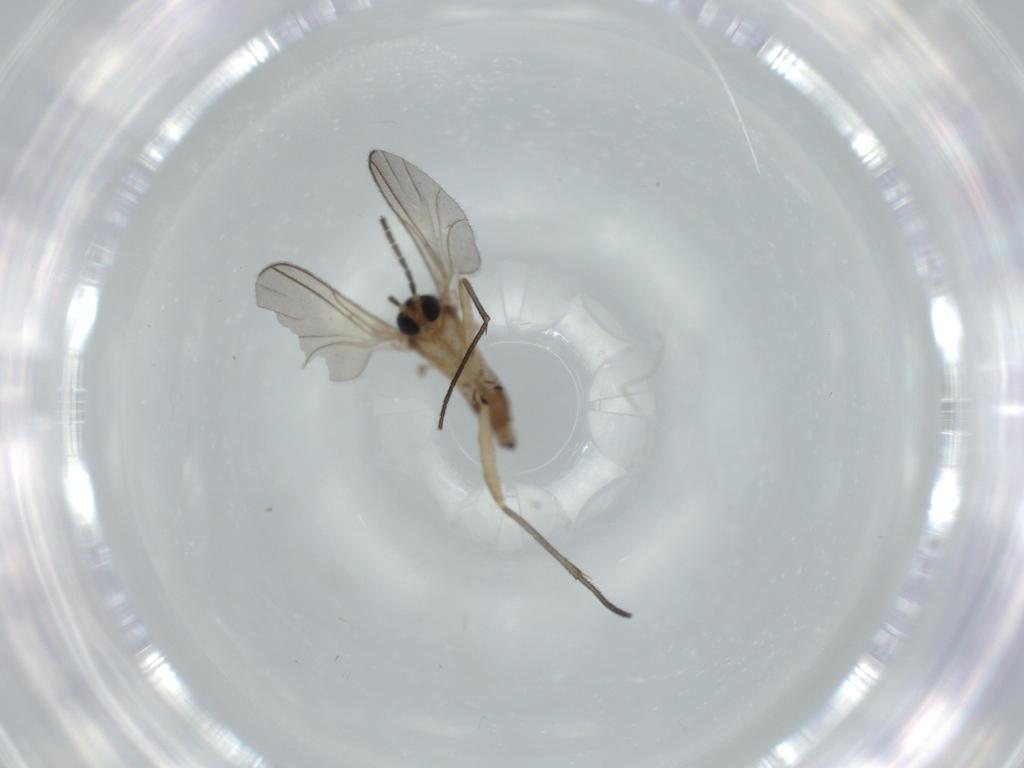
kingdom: Animalia
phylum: Arthropoda
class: Insecta
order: Diptera
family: Sciaridae
